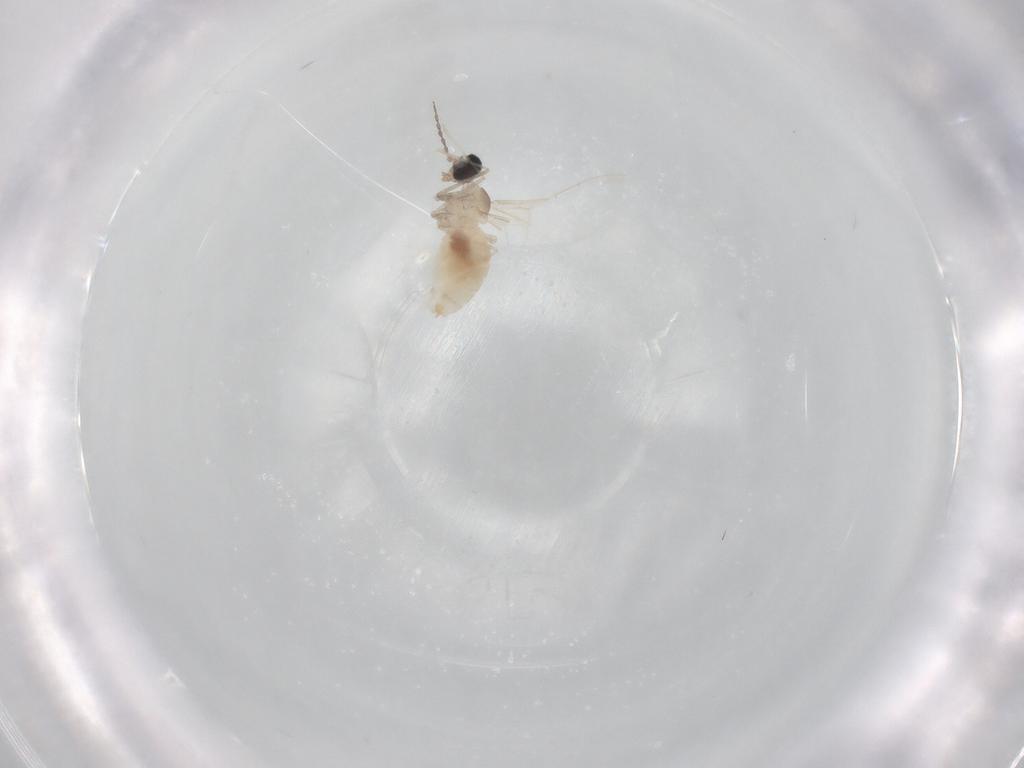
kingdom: Animalia
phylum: Arthropoda
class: Insecta
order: Diptera
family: Cecidomyiidae
